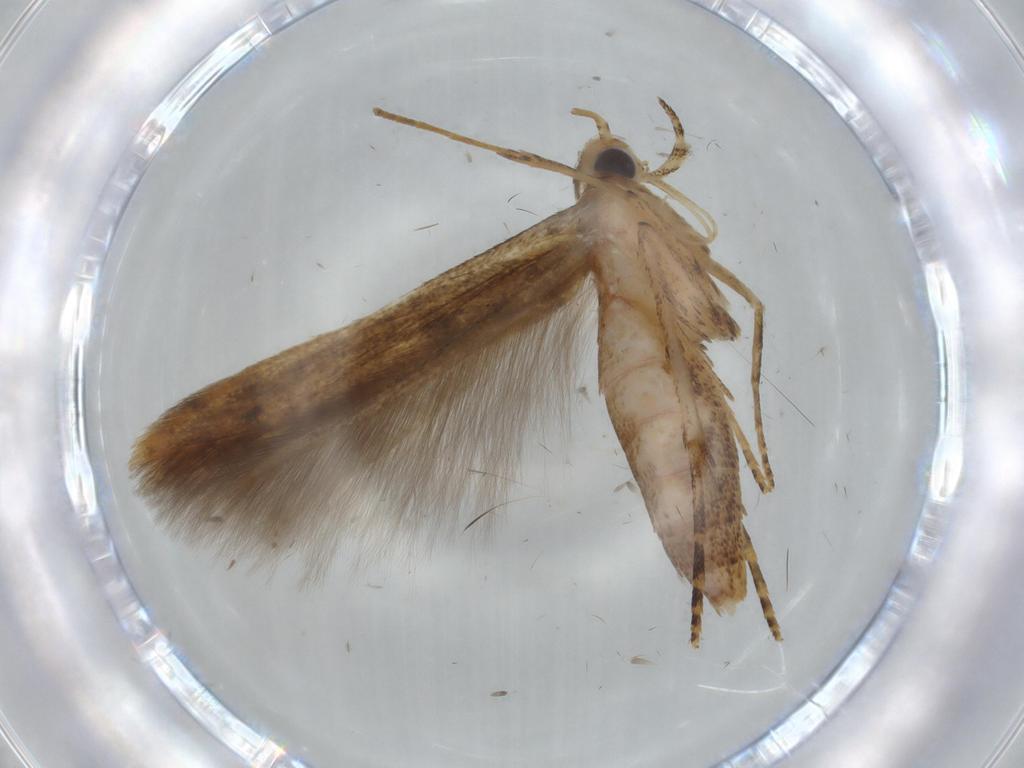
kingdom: Animalia
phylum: Arthropoda
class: Insecta
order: Lepidoptera
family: Batrachedridae
